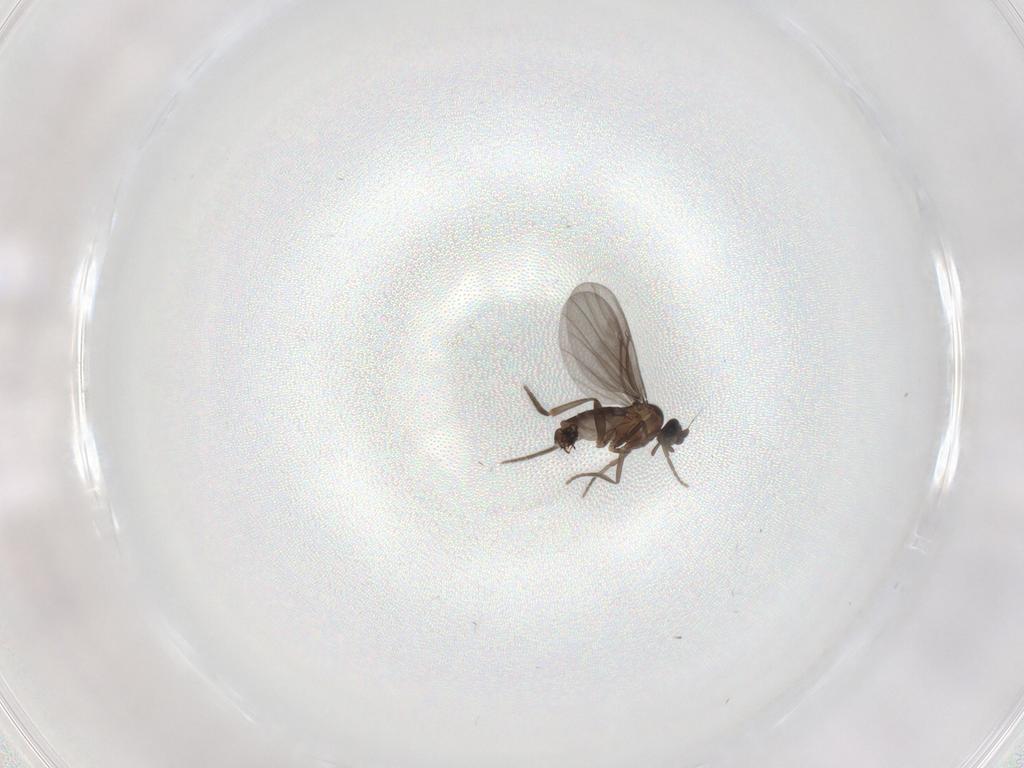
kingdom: Animalia
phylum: Arthropoda
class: Insecta
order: Diptera
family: Phoridae
